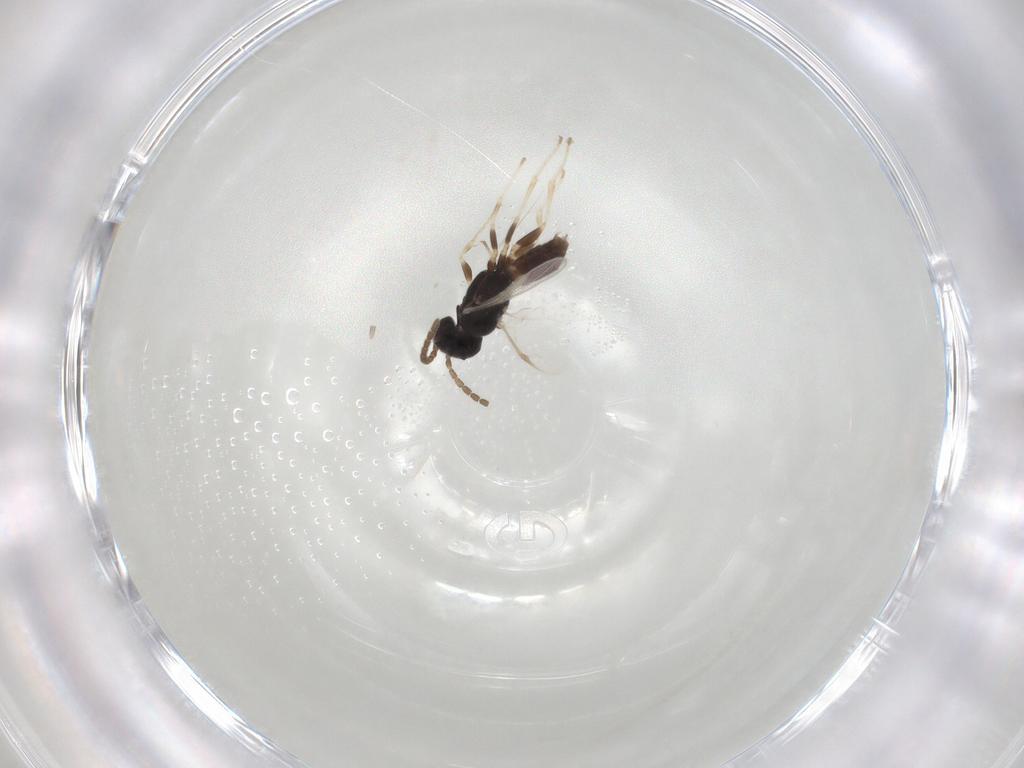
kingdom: Animalia
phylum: Arthropoda
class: Insecta
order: Hymenoptera
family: Dryinidae
